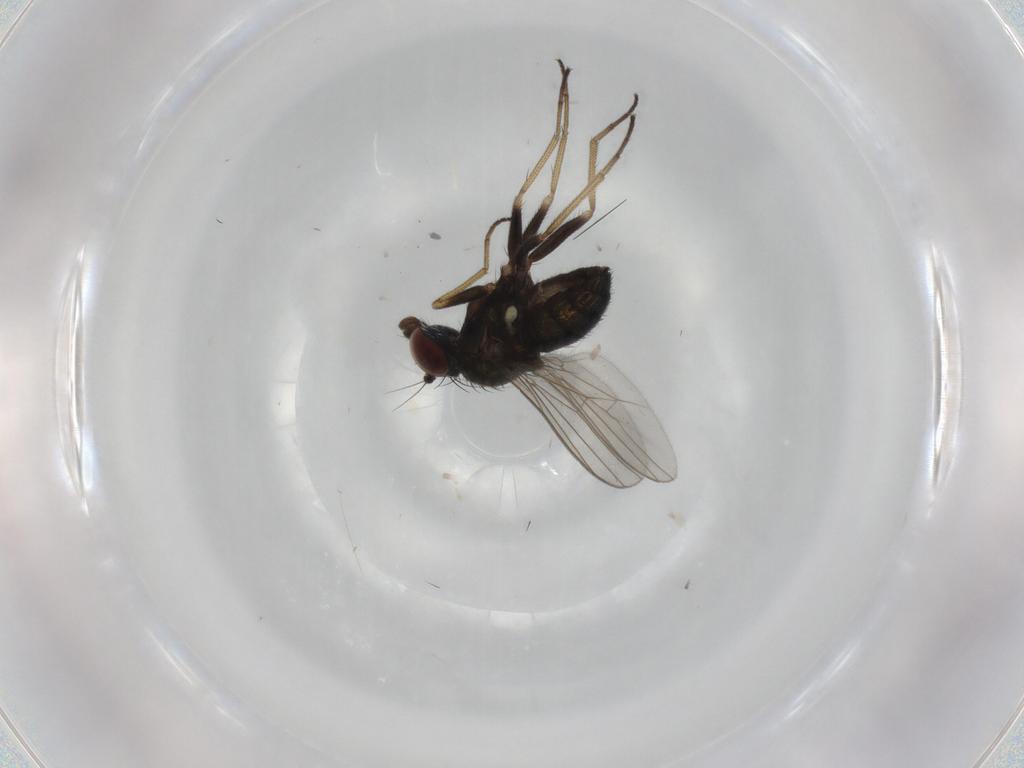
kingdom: Animalia
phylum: Arthropoda
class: Insecta
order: Diptera
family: Dolichopodidae
